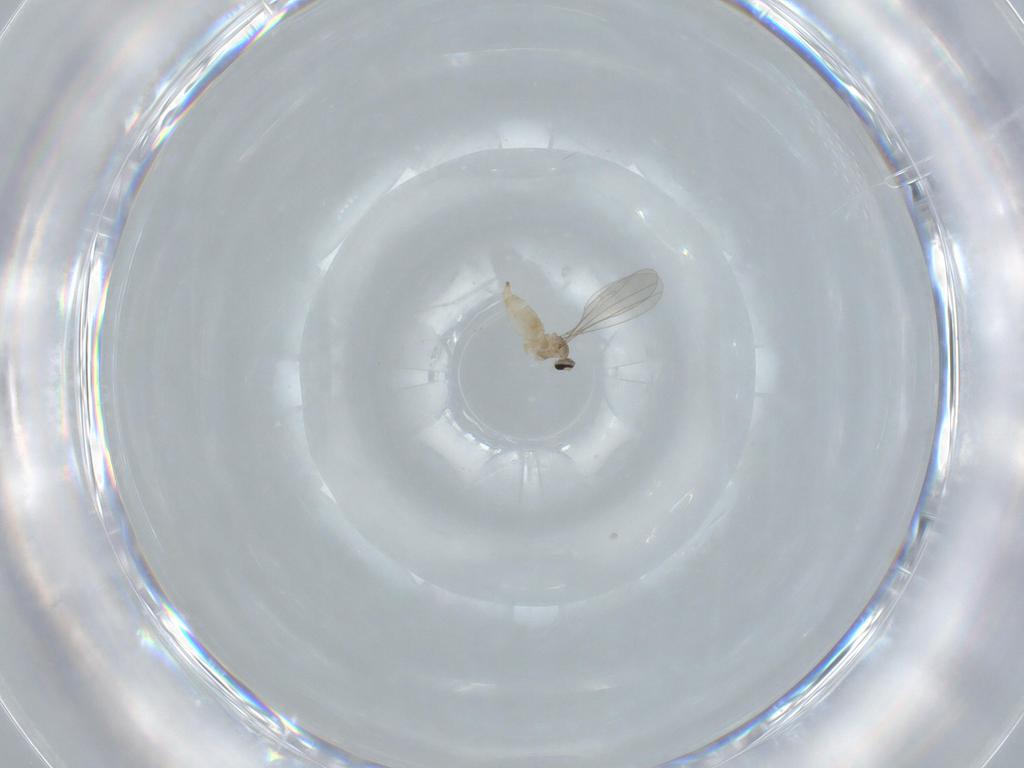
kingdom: Animalia
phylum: Arthropoda
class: Insecta
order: Diptera
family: Cecidomyiidae
